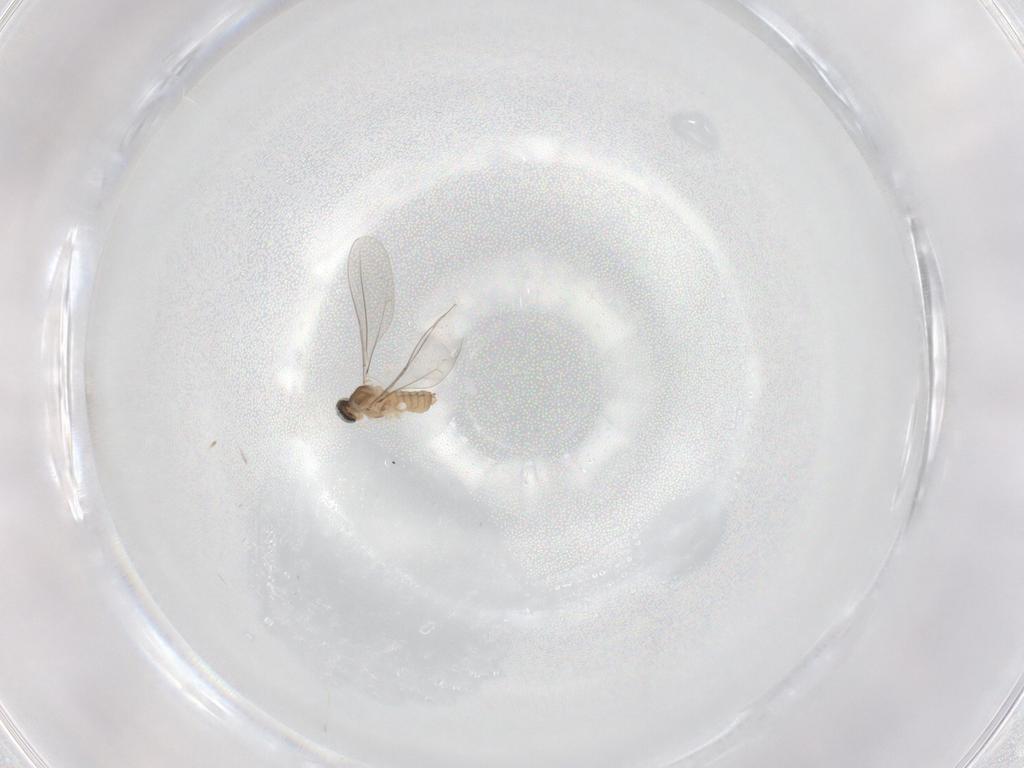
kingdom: Animalia
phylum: Arthropoda
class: Insecta
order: Diptera
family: Cecidomyiidae
